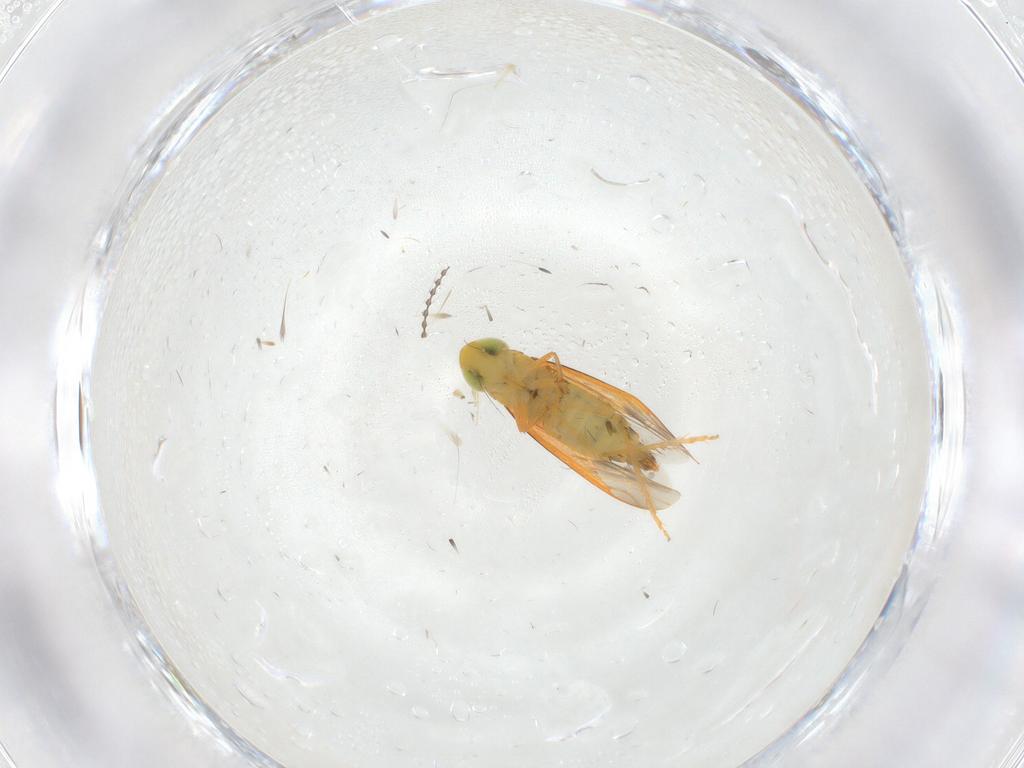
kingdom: Animalia
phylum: Arthropoda
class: Insecta
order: Hemiptera
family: Cicadellidae
